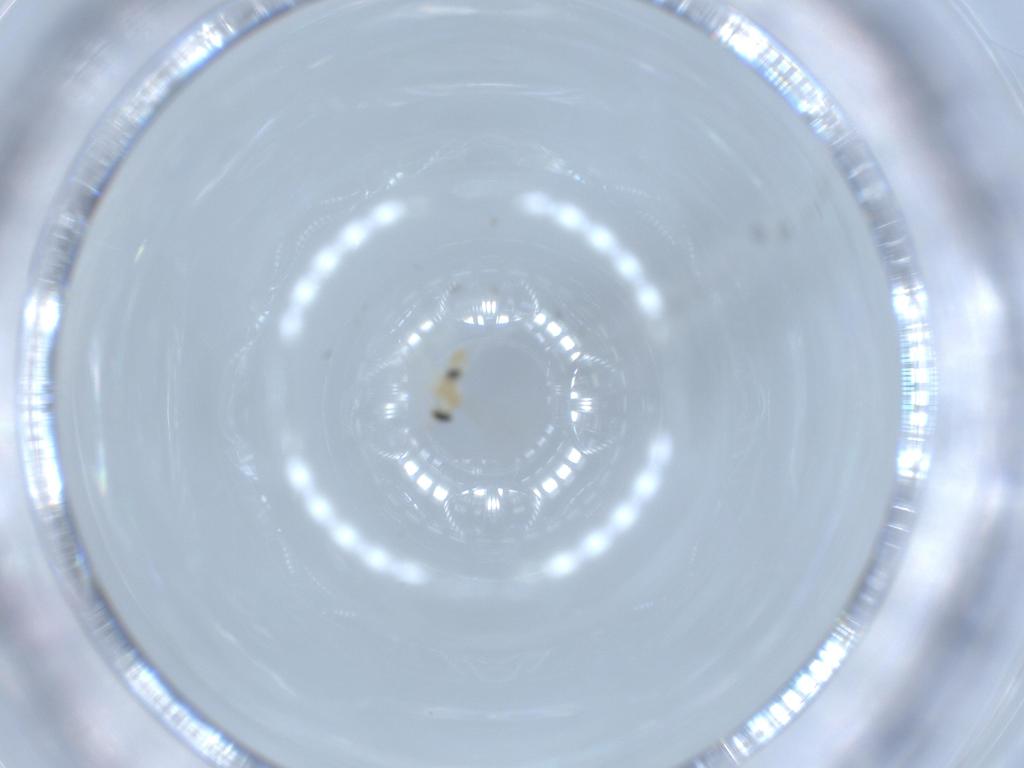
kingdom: Animalia
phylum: Arthropoda
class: Insecta
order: Diptera
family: Cecidomyiidae
